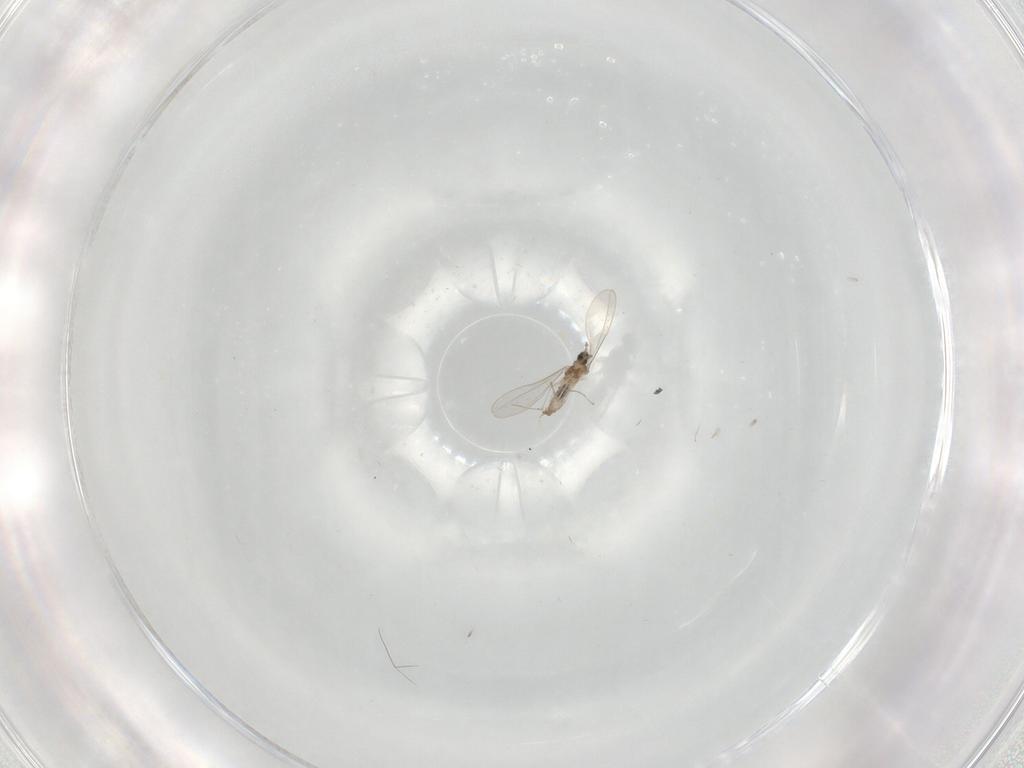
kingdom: Animalia
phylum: Arthropoda
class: Insecta
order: Diptera
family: Cecidomyiidae
